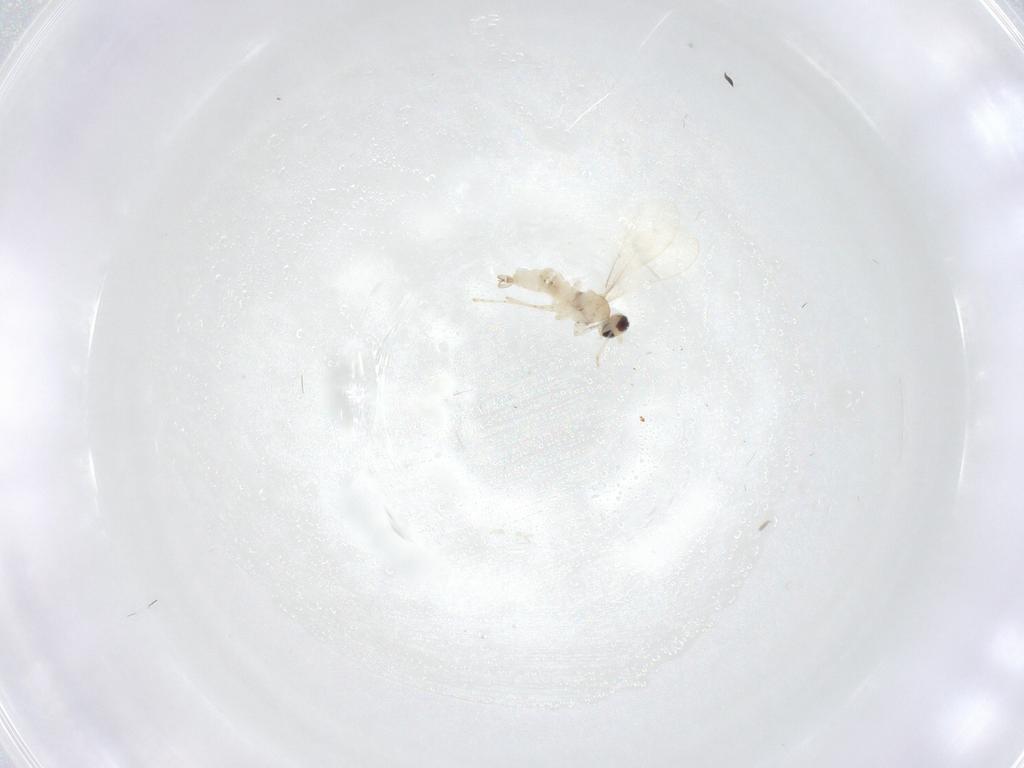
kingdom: Animalia
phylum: Arthropoda
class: Insecta
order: Diptera
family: Cecidomyiidae
